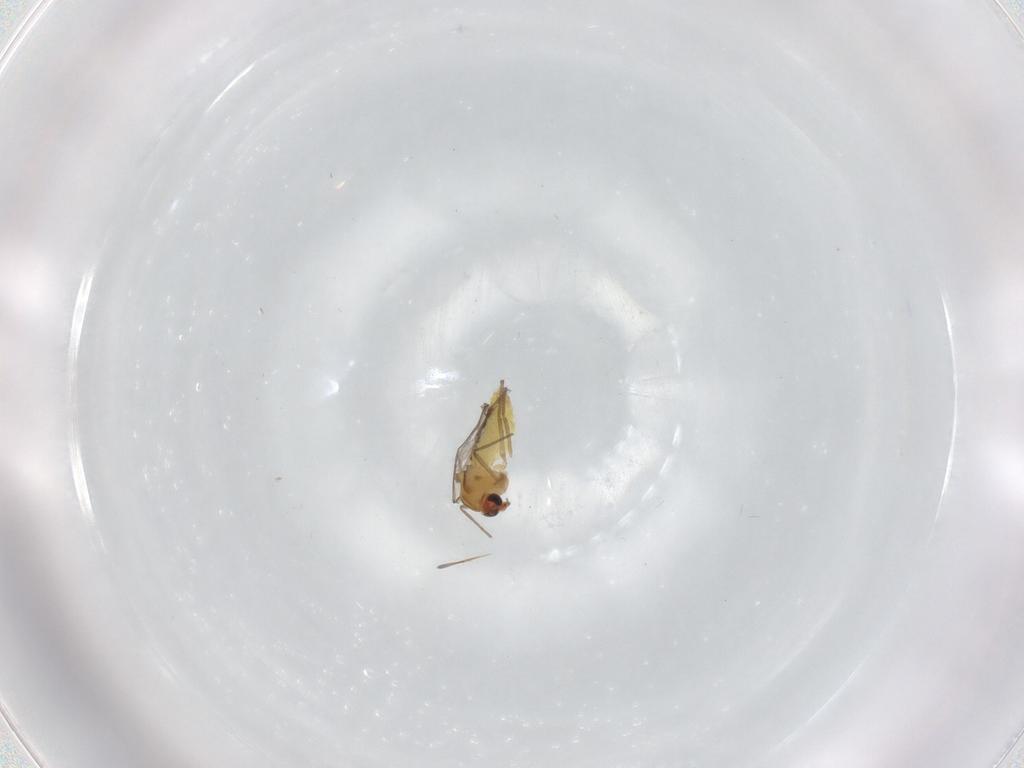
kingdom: Animalia
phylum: Arthropoda
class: Insecta
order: Diptera
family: Chironomidae
